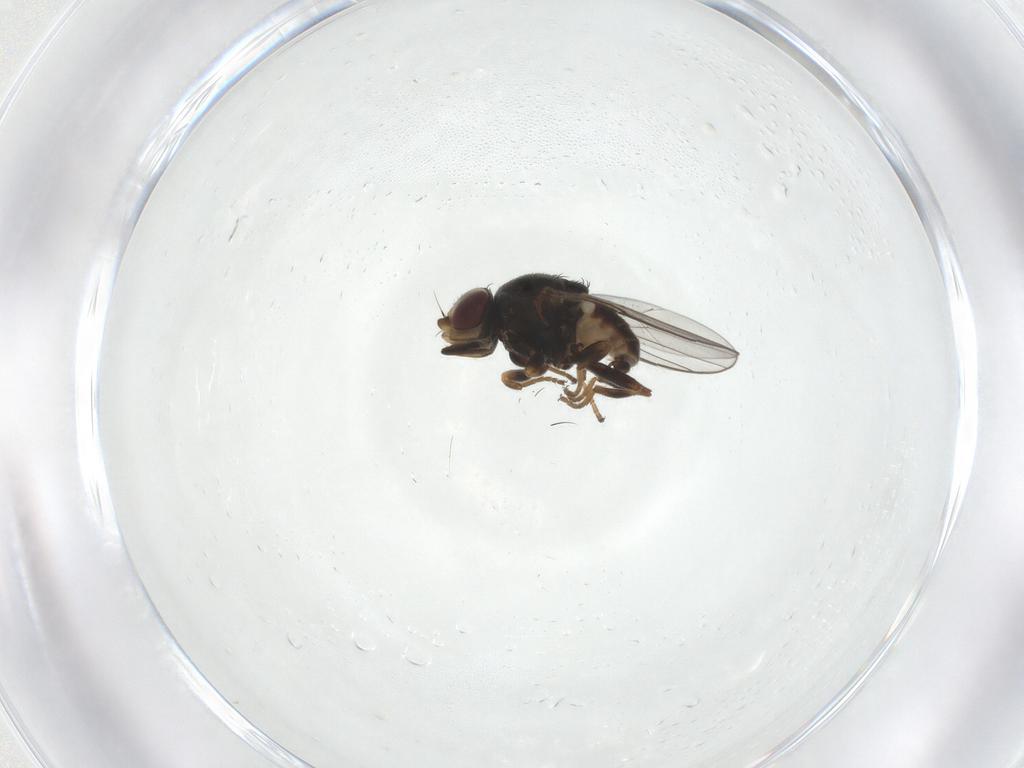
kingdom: Animalia
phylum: Arthropoda
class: Insecta
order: Diptera
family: Chloropidae
